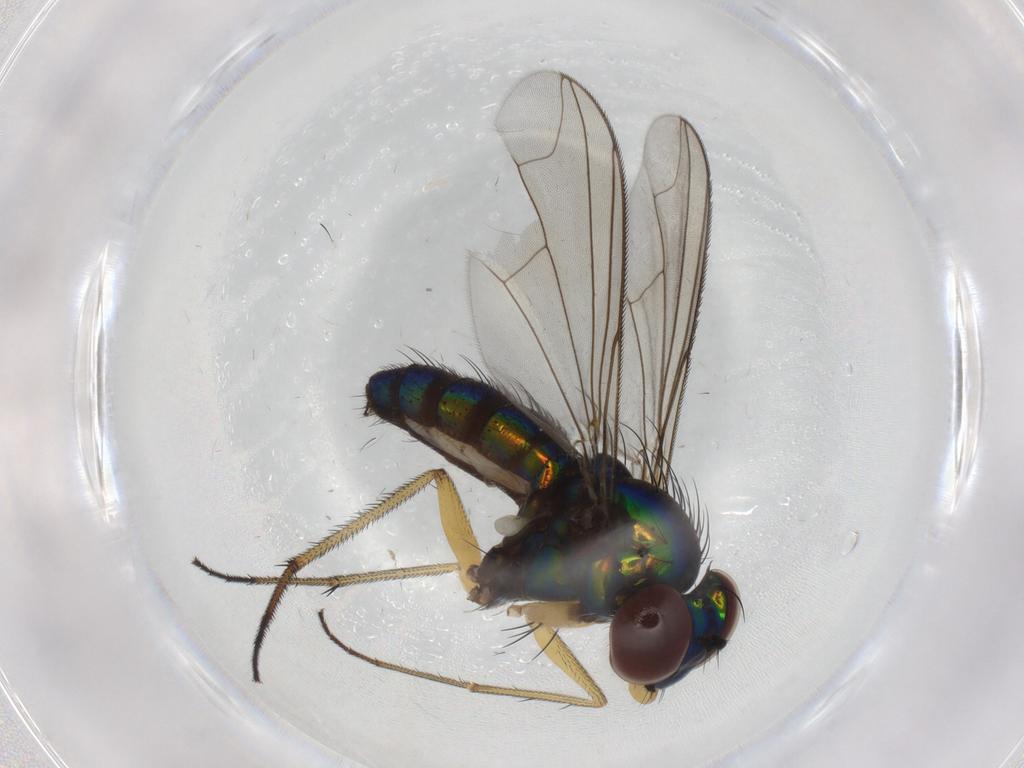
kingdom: Animalia
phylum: Arthropoda
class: Insecta
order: Diptera
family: Dolichopodidae
